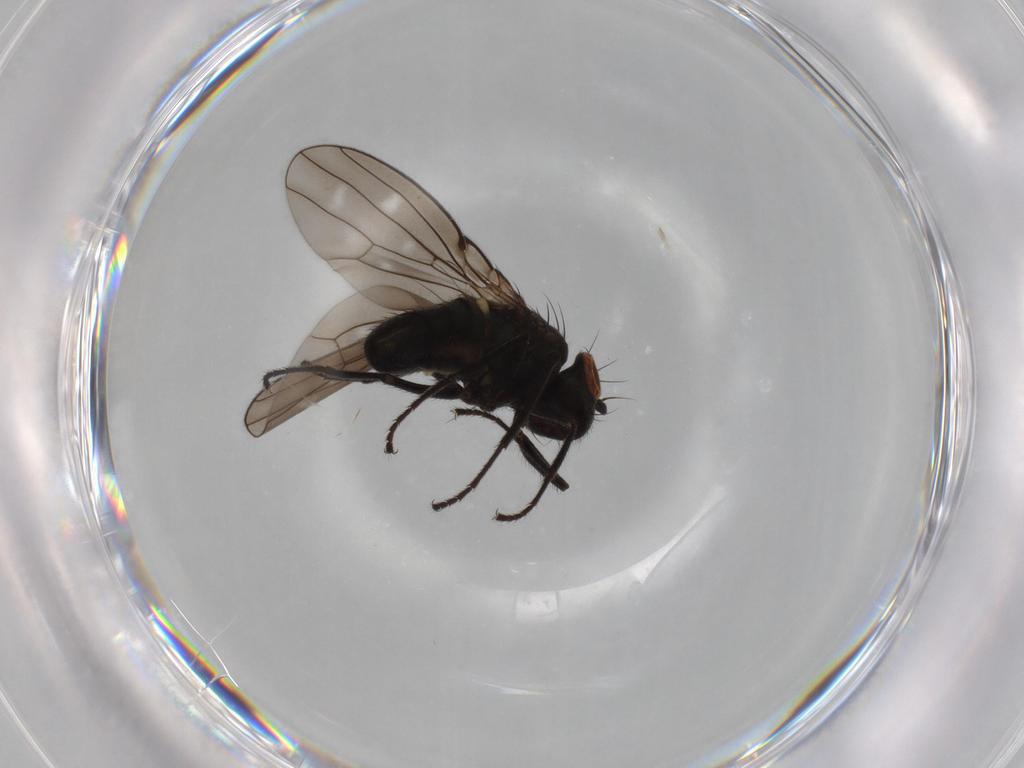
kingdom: Animalia
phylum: Arthropoda
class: Insecta
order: Diptera
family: Ephydridae
